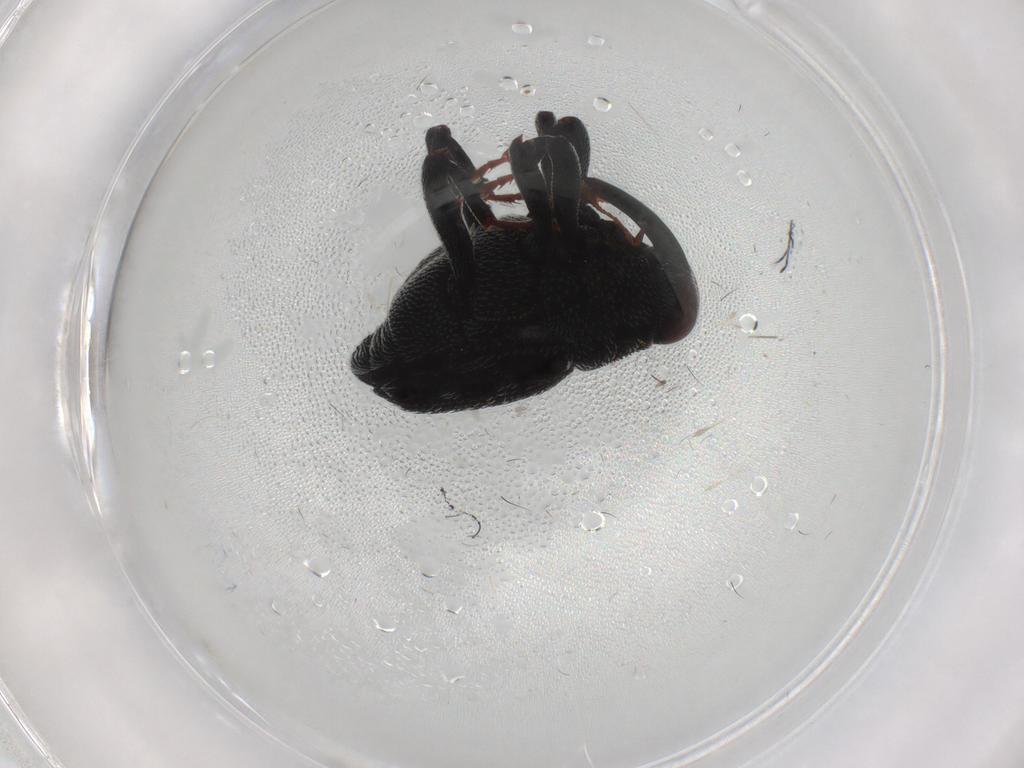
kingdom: Animalia
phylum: Arthropoda
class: Insecta
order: Coleoptera
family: Curculionidae
